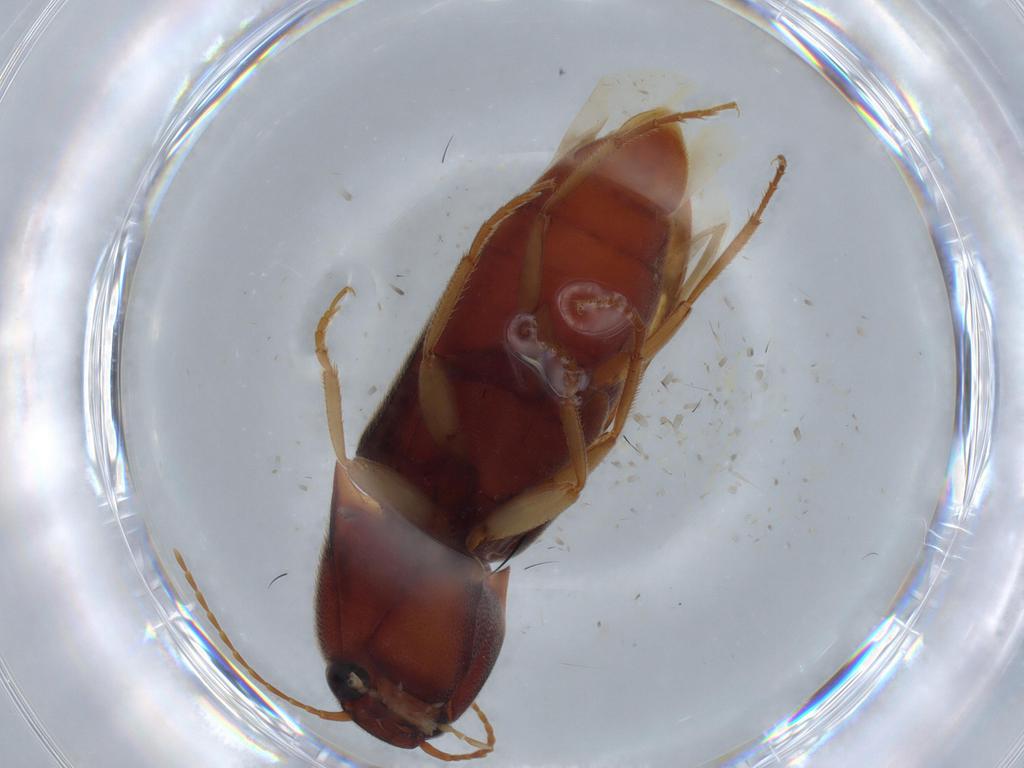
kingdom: Animalia
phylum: Arthropoda
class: Insecta
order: Coleoptera
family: Elateridae
